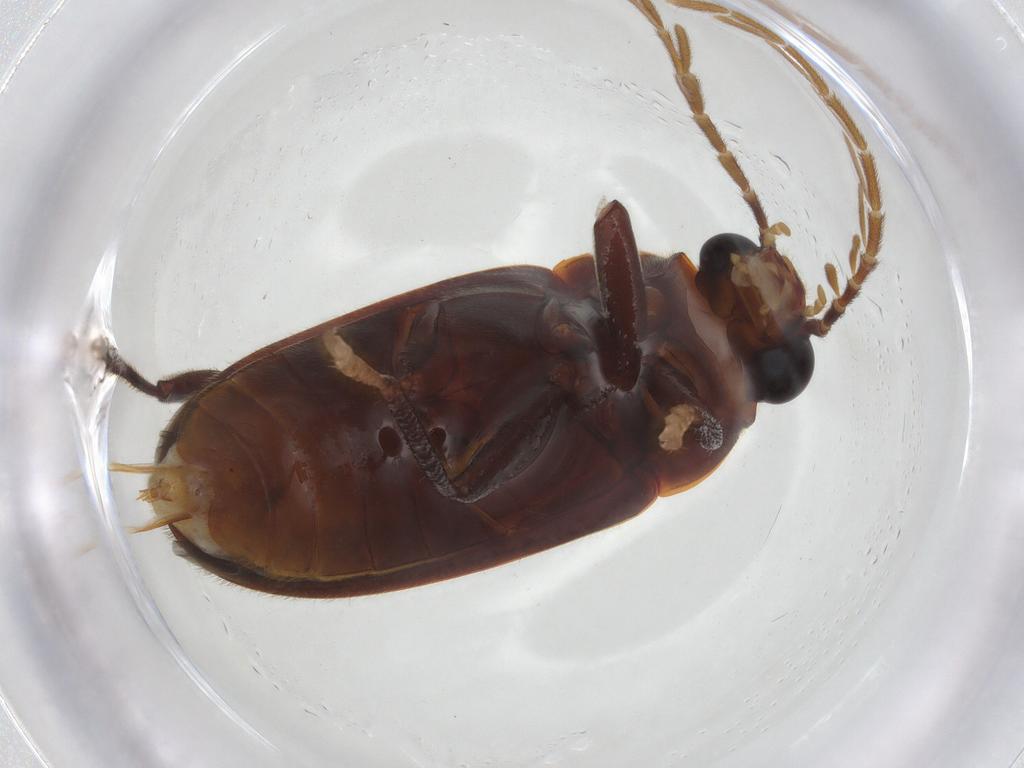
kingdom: Animalia
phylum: Arthropoda
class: Insecta
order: Coleoptera
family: Ptilodactylidae
